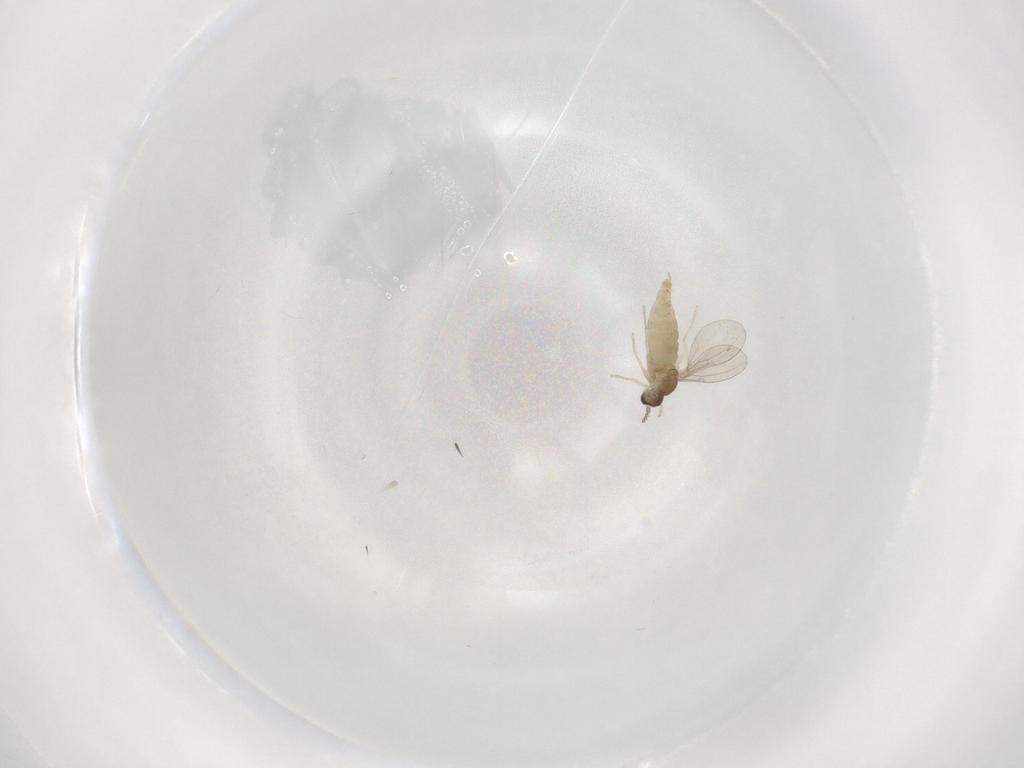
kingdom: Animalia
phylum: Arthropoda
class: Insecta
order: Diptera
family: Cecidomyiidae
